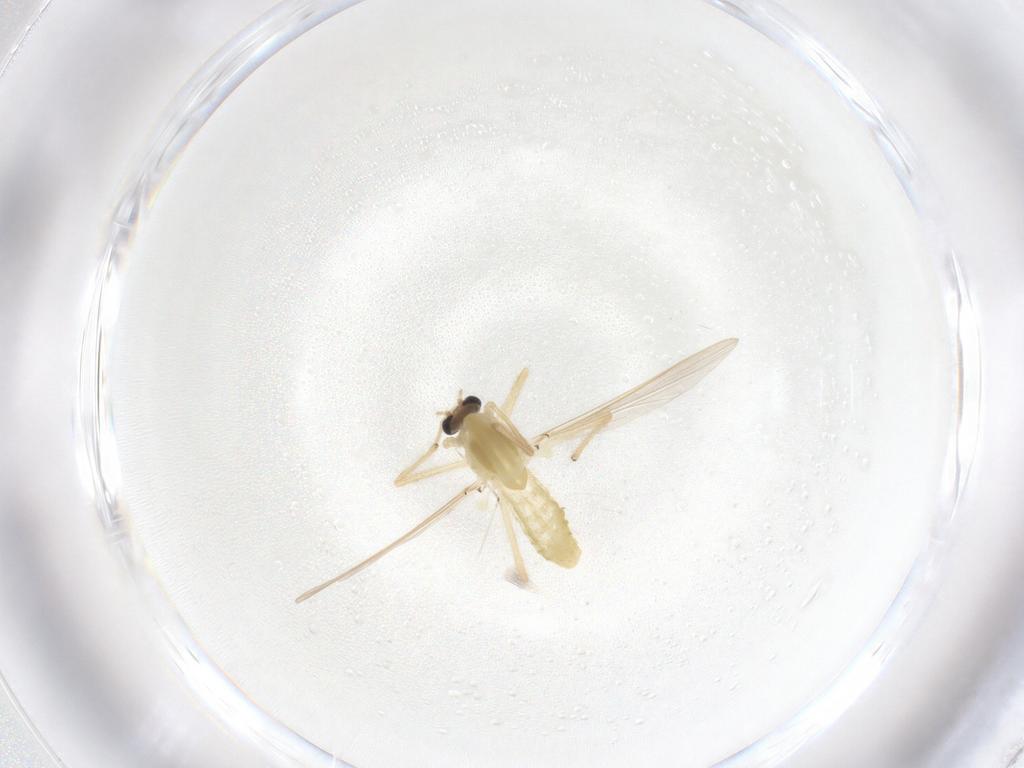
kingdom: Animalia
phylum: Arthropoda
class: Insecta
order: Diptera
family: Chironomidae
